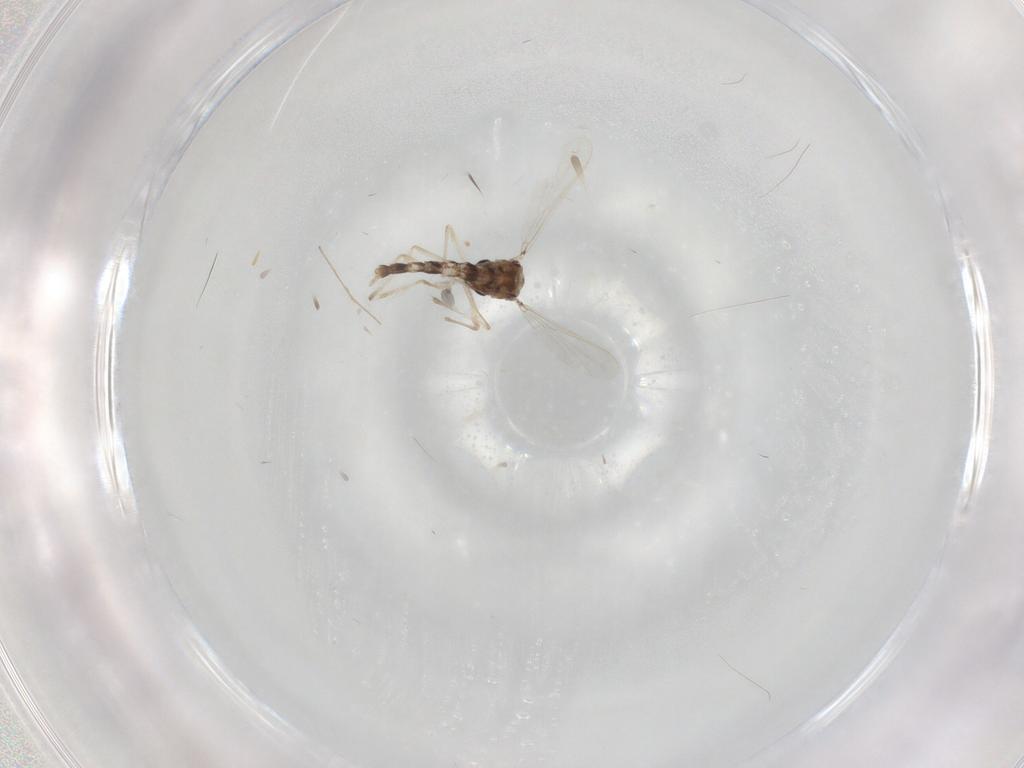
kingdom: Animalia
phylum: Arthropoda
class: Insecta
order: Diptera
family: Chironomidae
